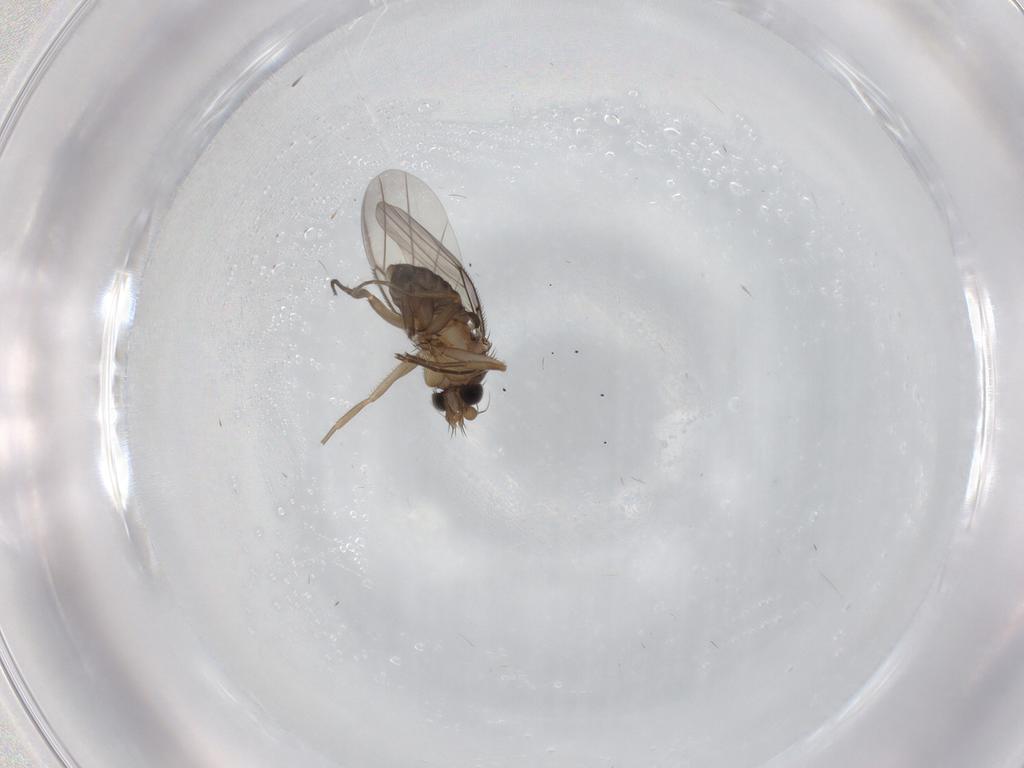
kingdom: Animalia
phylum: Arthropoda
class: Insecta
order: Diptera
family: Phoridae
